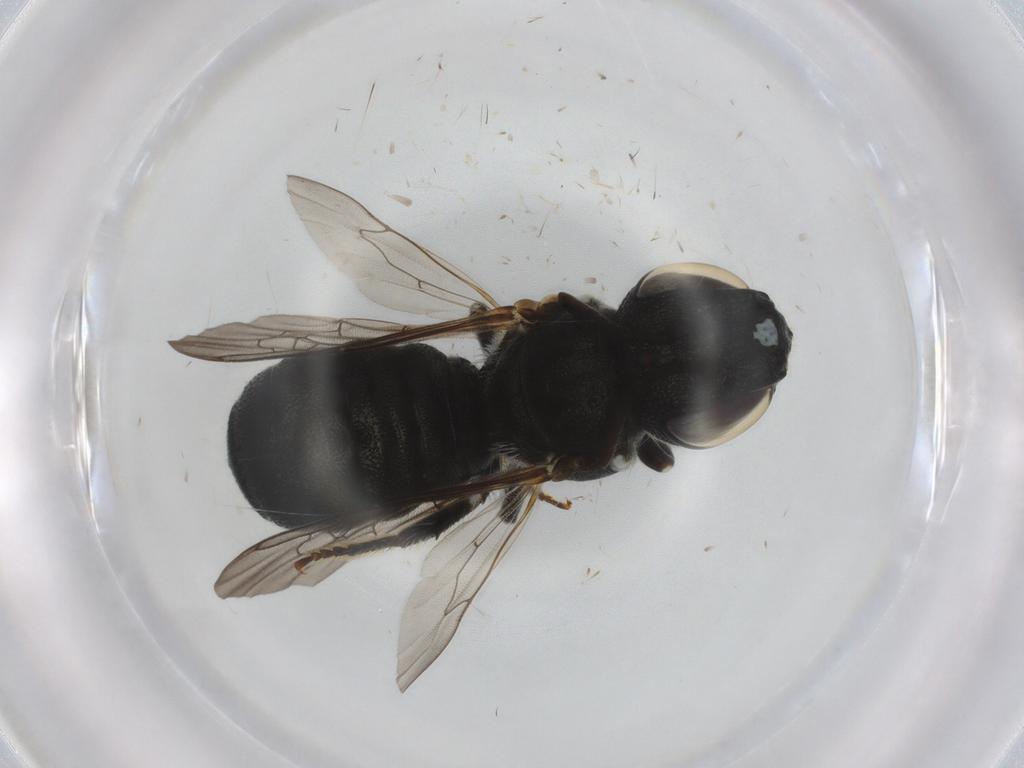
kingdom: Animalia
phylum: Arthropoda
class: Insecta
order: Hymenoptera
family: Apidae
